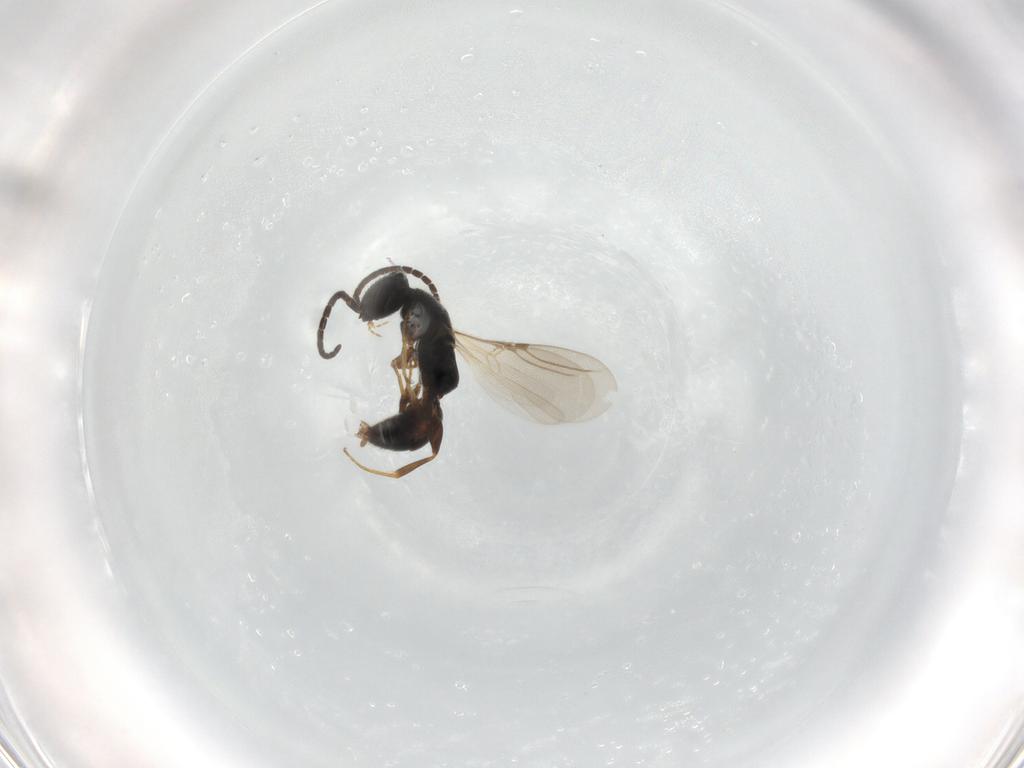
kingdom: Animalia
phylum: Arthropoda
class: Insecta
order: Hymenoptera
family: Bethylidae
